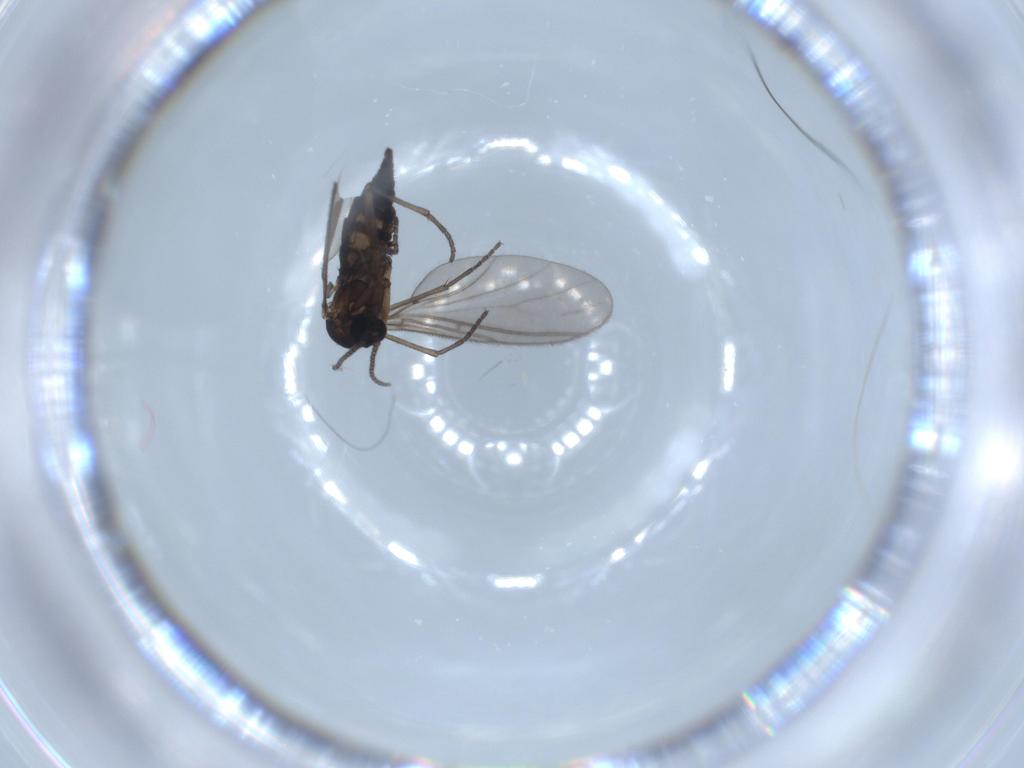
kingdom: Animalia
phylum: Arthropoda
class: Insecta
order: Diptera
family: Sciaridae
